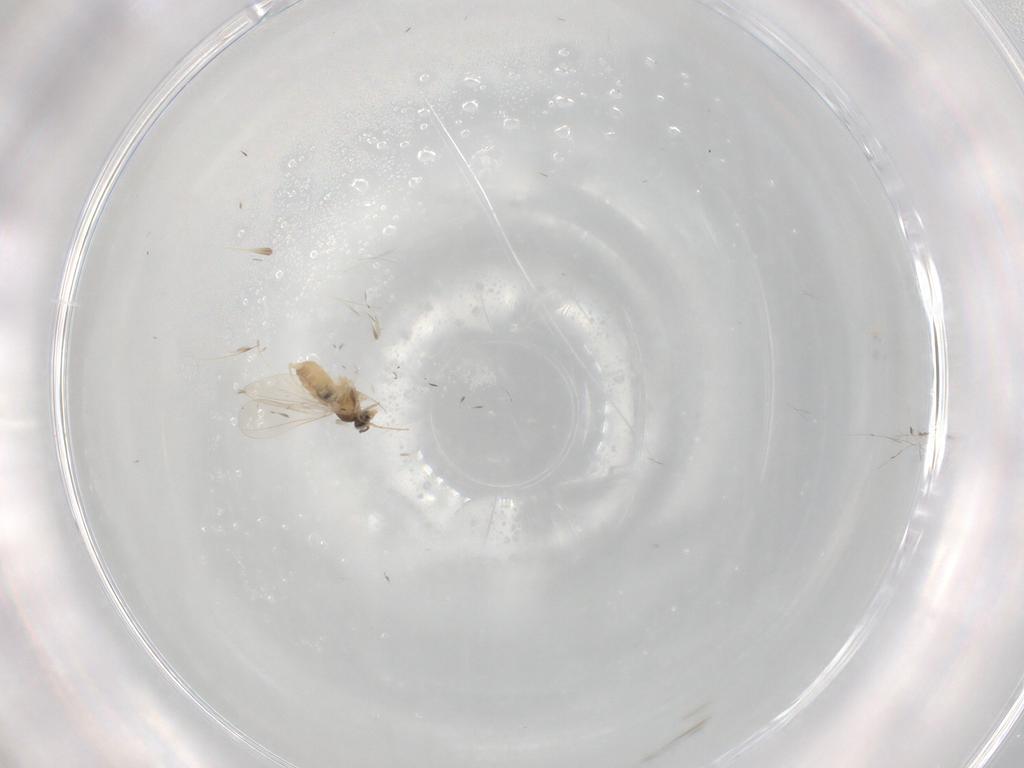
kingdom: Animalia
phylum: Arthropoda
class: Insecta
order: Diptera
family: Cecidomyiidae
